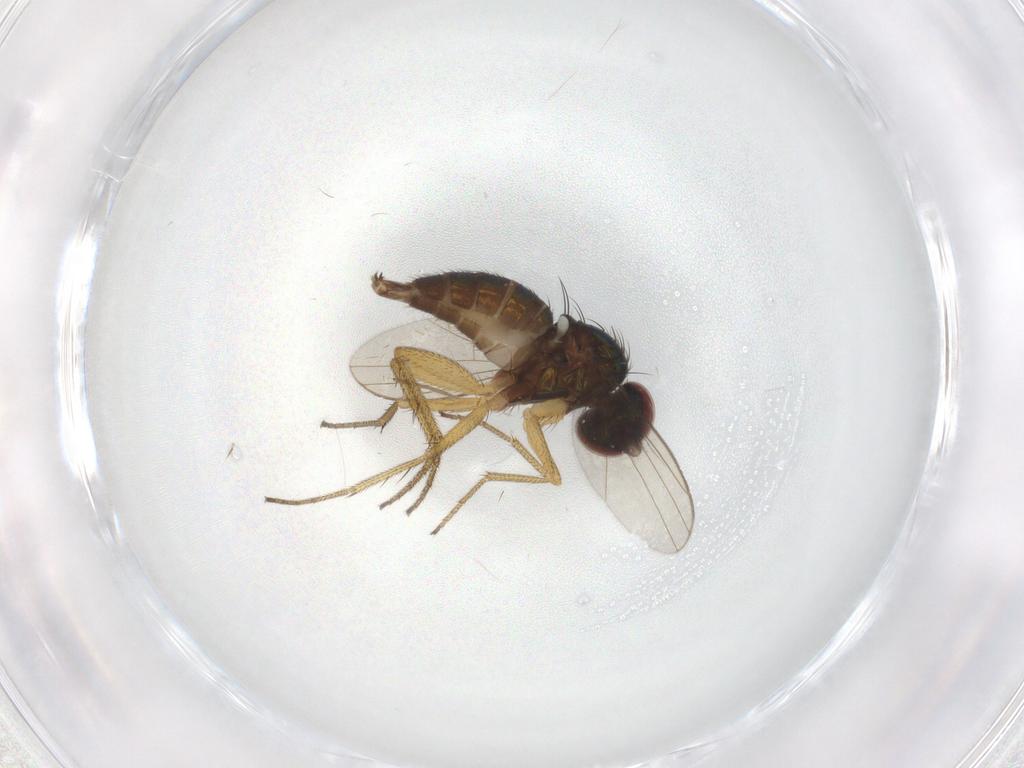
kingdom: Animalia
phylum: Arthropoda
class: Insecta
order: Diptera
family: Dolichopodidae
